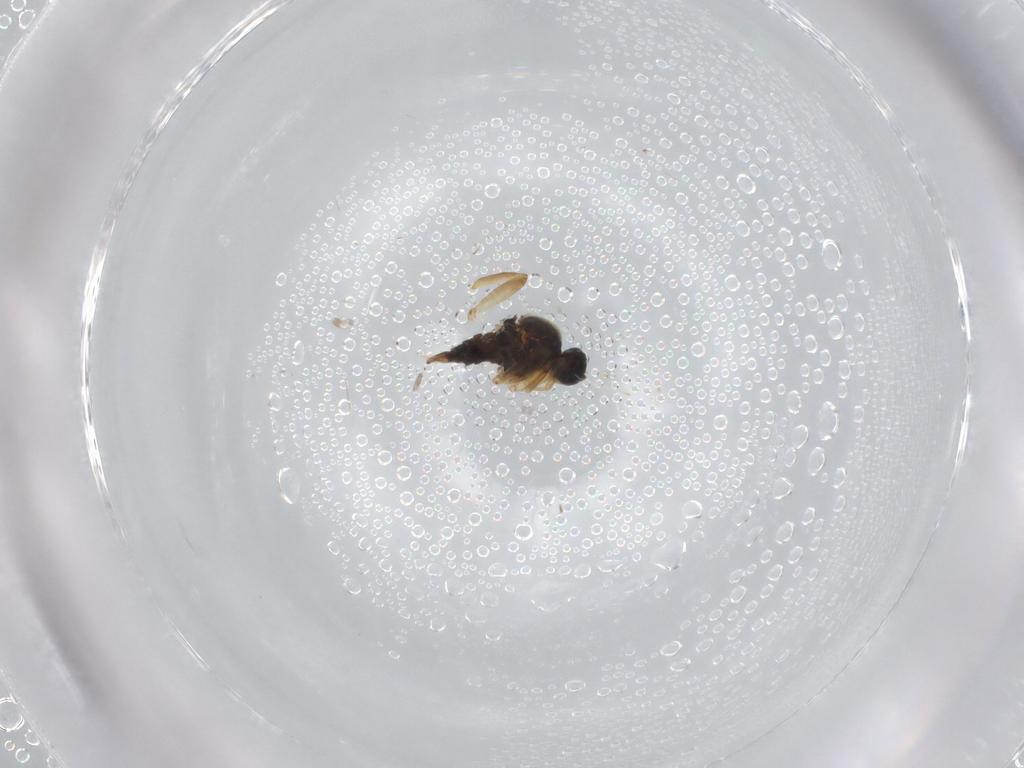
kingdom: Animalia
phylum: Arthropoda
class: Insecta
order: Diptera
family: Hybotidae
